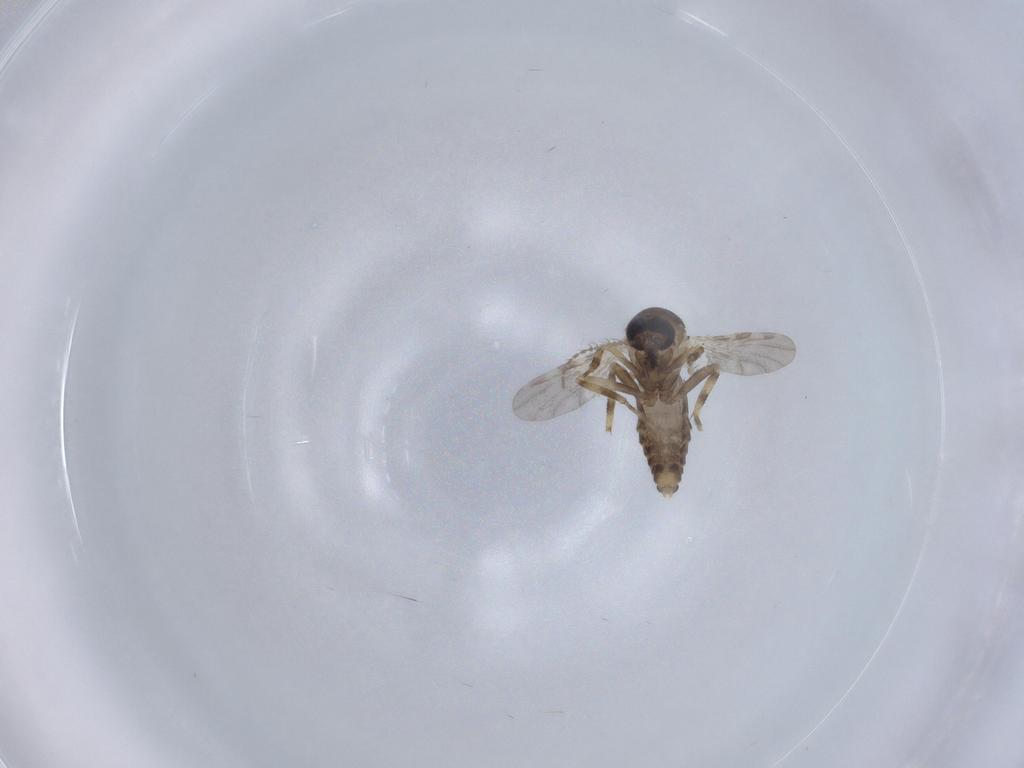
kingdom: Animalia
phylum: Arthropoda
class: Insecta
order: Diptera
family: Ceratopogonidae
